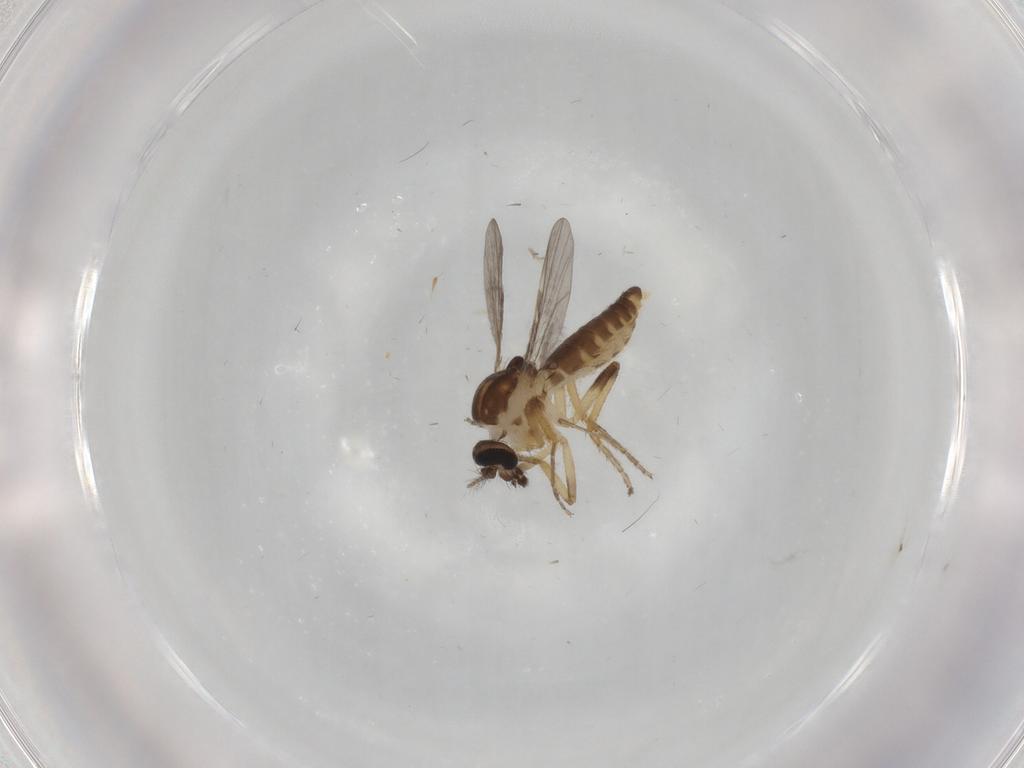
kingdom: Animalia
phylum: Arthropoda
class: Insecta
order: Diptera
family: Ceratopogonidae
